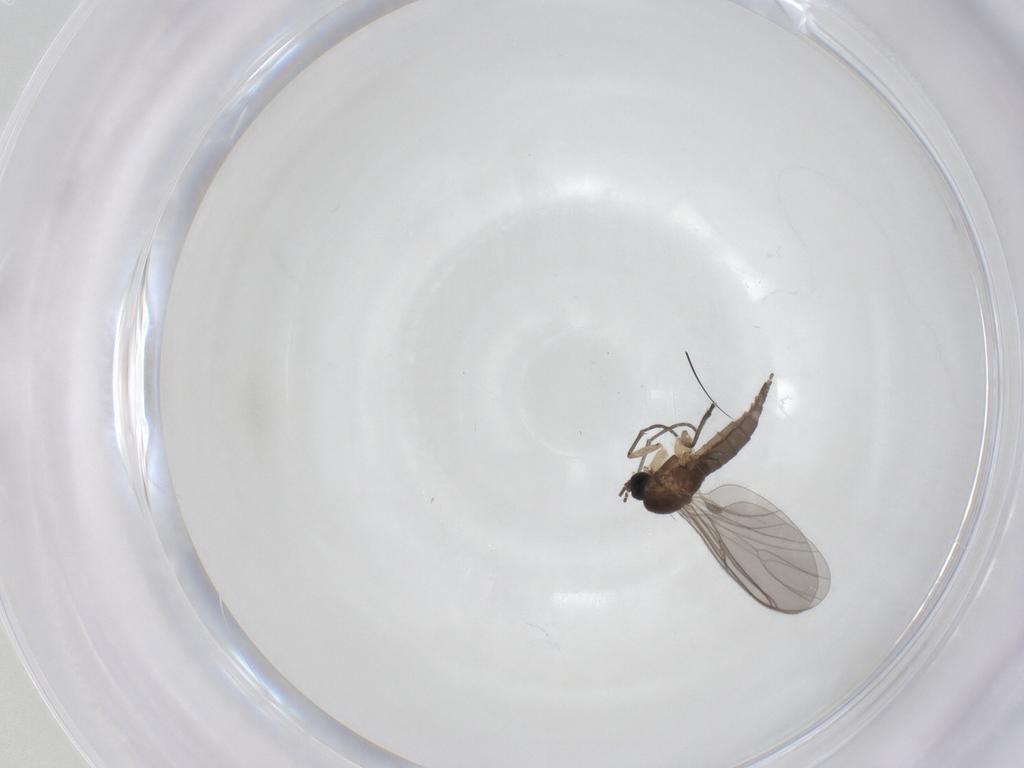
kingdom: Animalia
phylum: Arthropoda
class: Insecta
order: Diptera
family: Sciaridae
